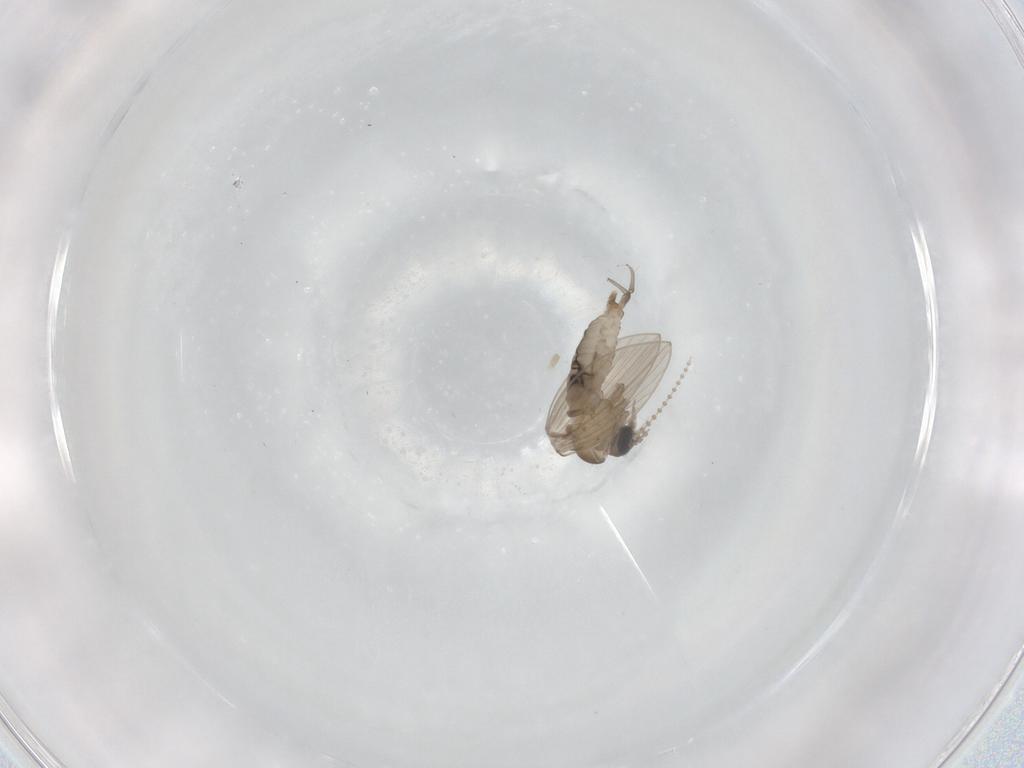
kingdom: Animalia
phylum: Arthropoda
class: Insecta
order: Diptera
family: Psychodidae
